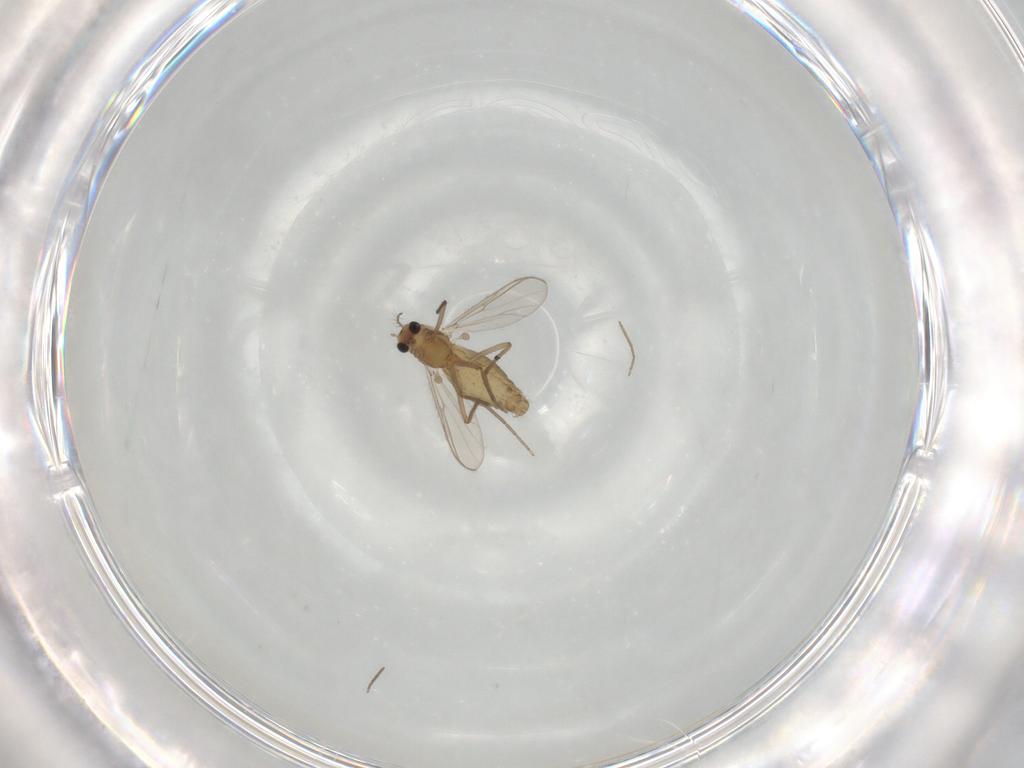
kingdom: Animalia
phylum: Arthropoda
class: Insecta
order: Diptera
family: Chironomidae
